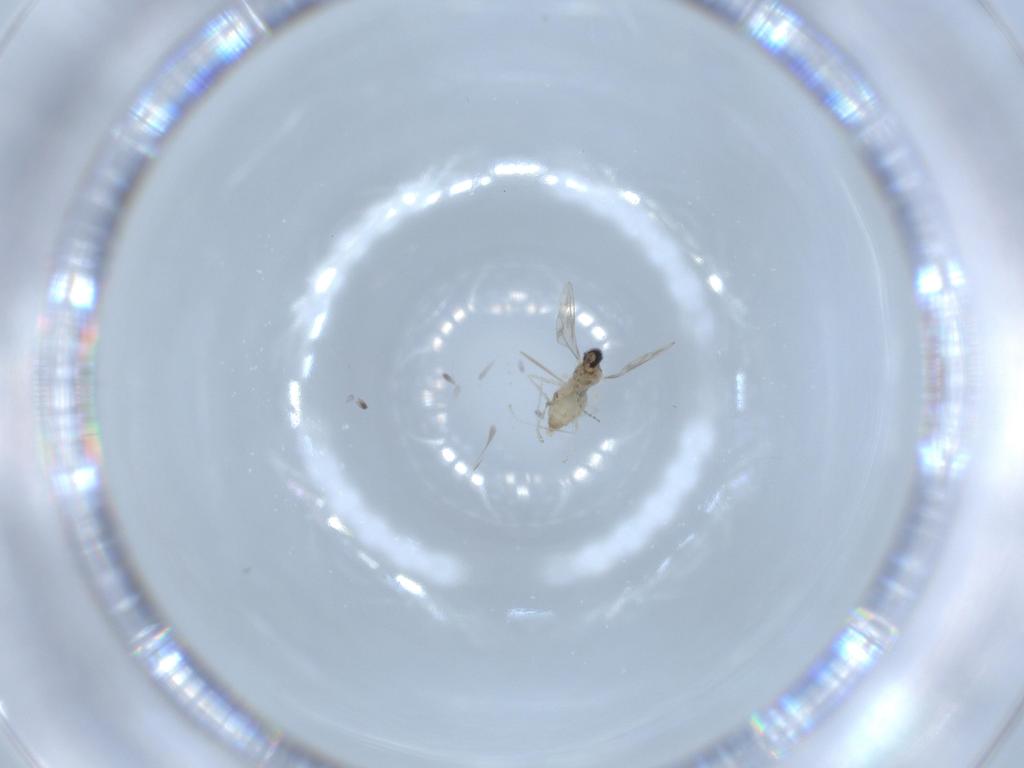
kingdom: Animalia
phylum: Arthropoda
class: Insecta
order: Diptera
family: Cecidomyiidae
